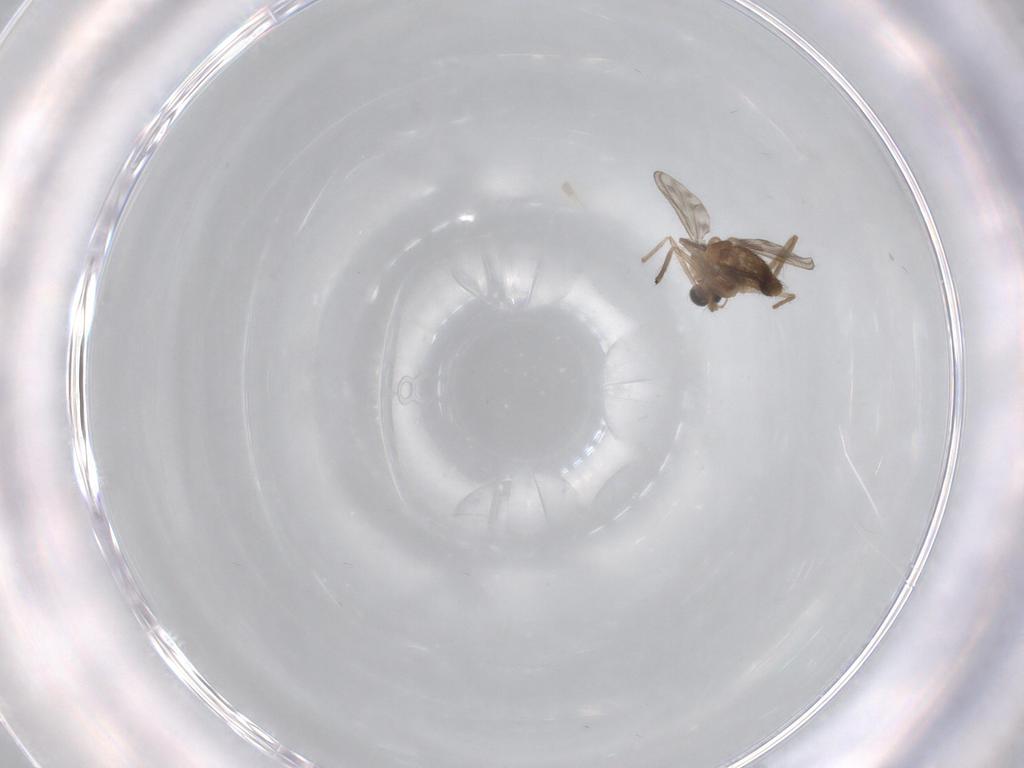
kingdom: Animalia
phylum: Arthropoda
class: Insecta
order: Diptera
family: Chironomidae
